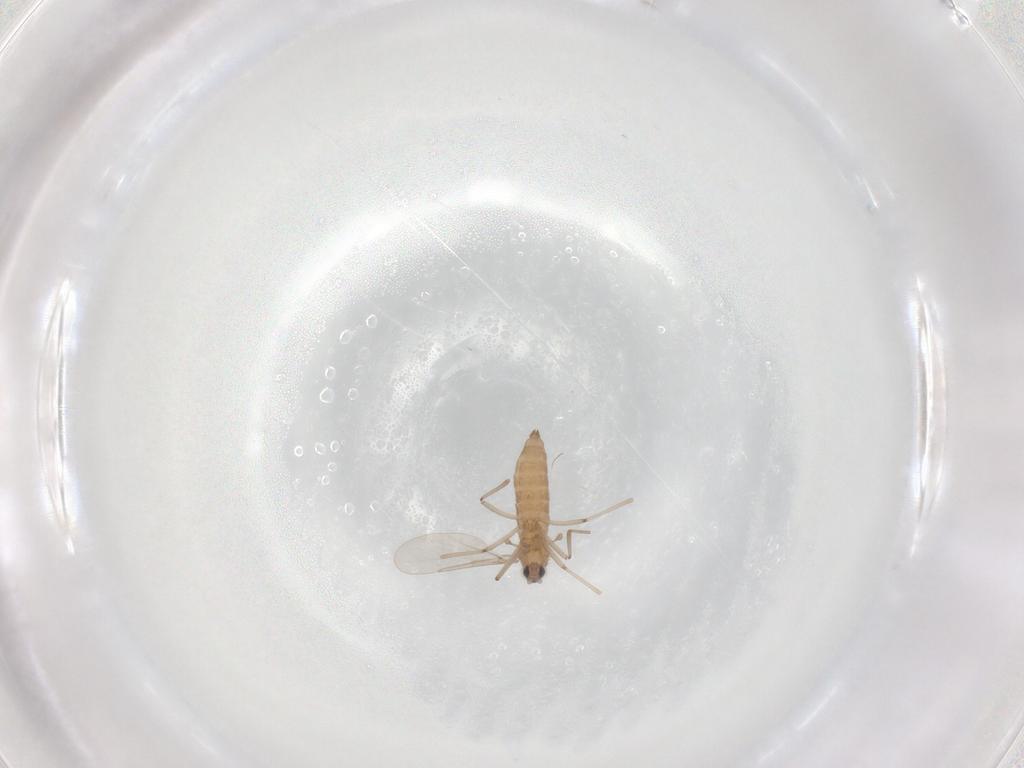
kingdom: Animalia
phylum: Arthropoda
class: Insecta
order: Diptera
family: Cecidomyiidae
